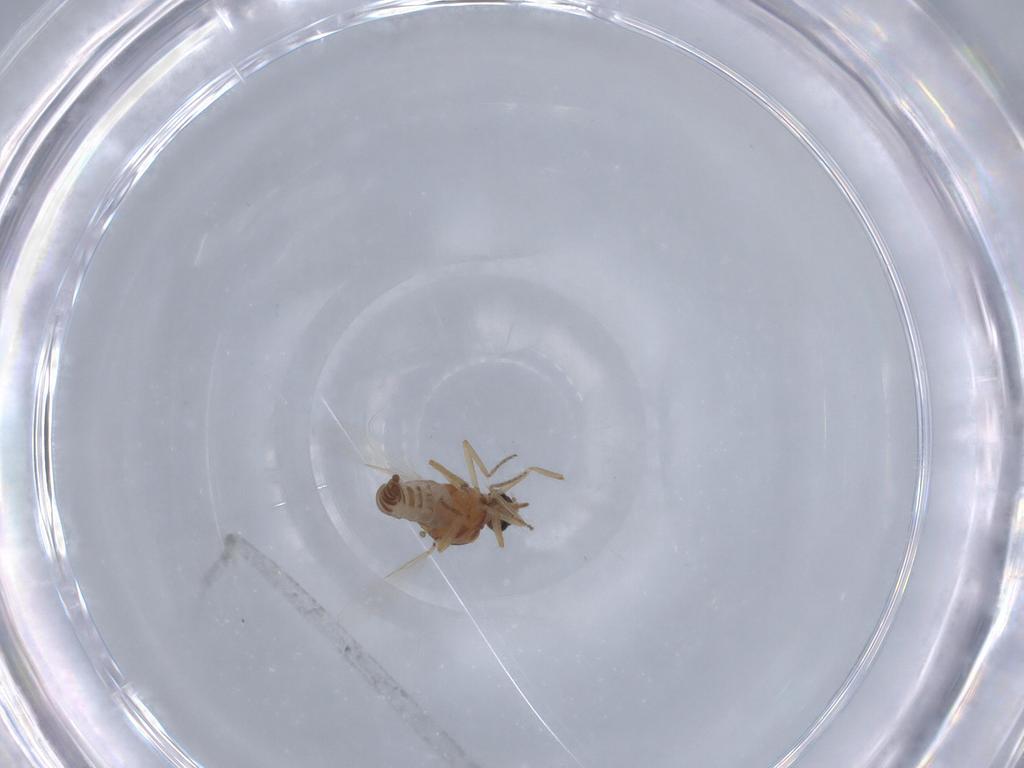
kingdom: Animalia
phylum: Arthropoda
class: Insecta
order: Diptera
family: Ceratopogonidae
